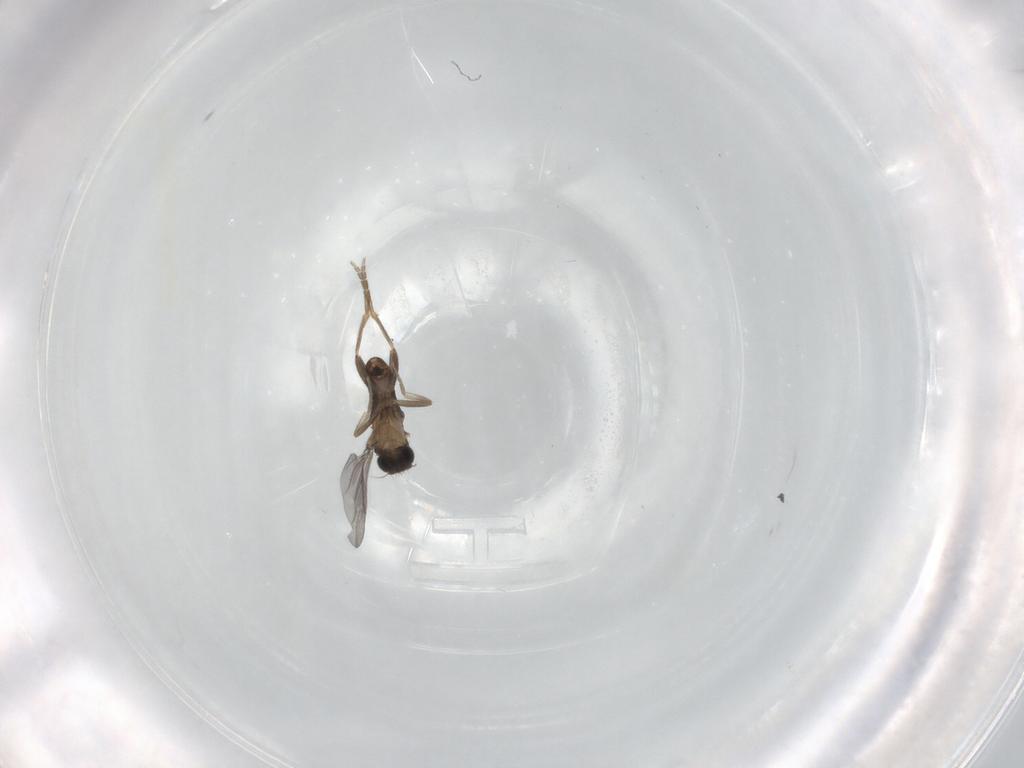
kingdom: Animalia
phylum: Arthropoda
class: Insecta
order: Diptera
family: Sciaridae
